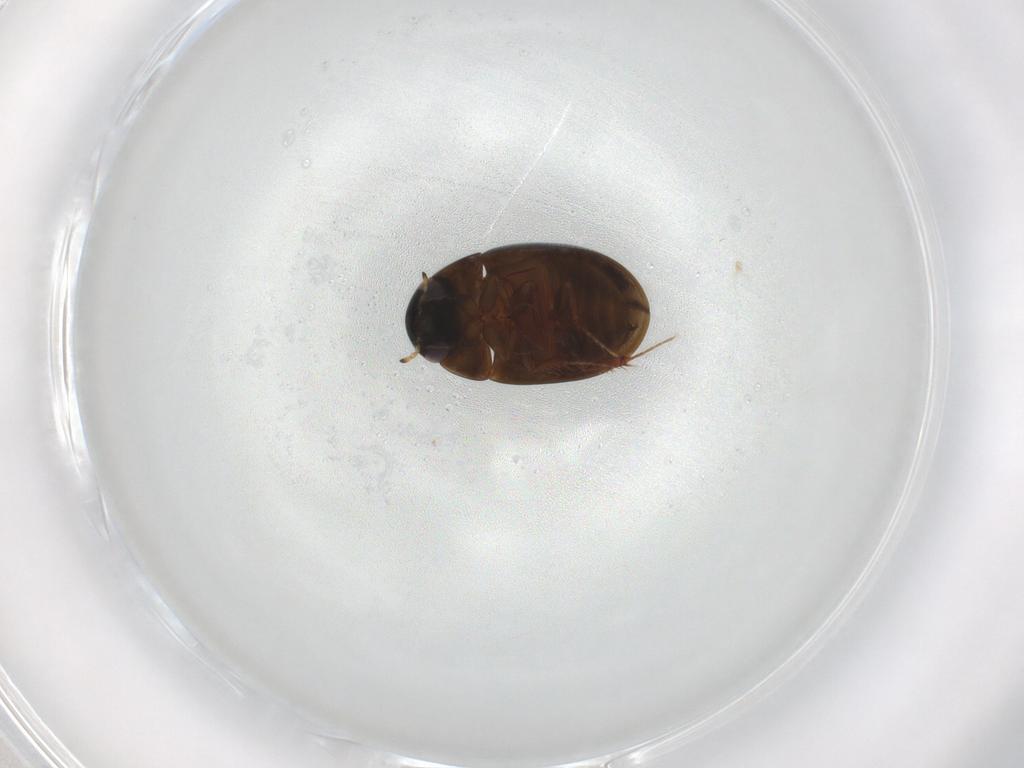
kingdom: Animalia
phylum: Arthropoda
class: Insecta
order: Coleoptera
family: Hydrophilidae
